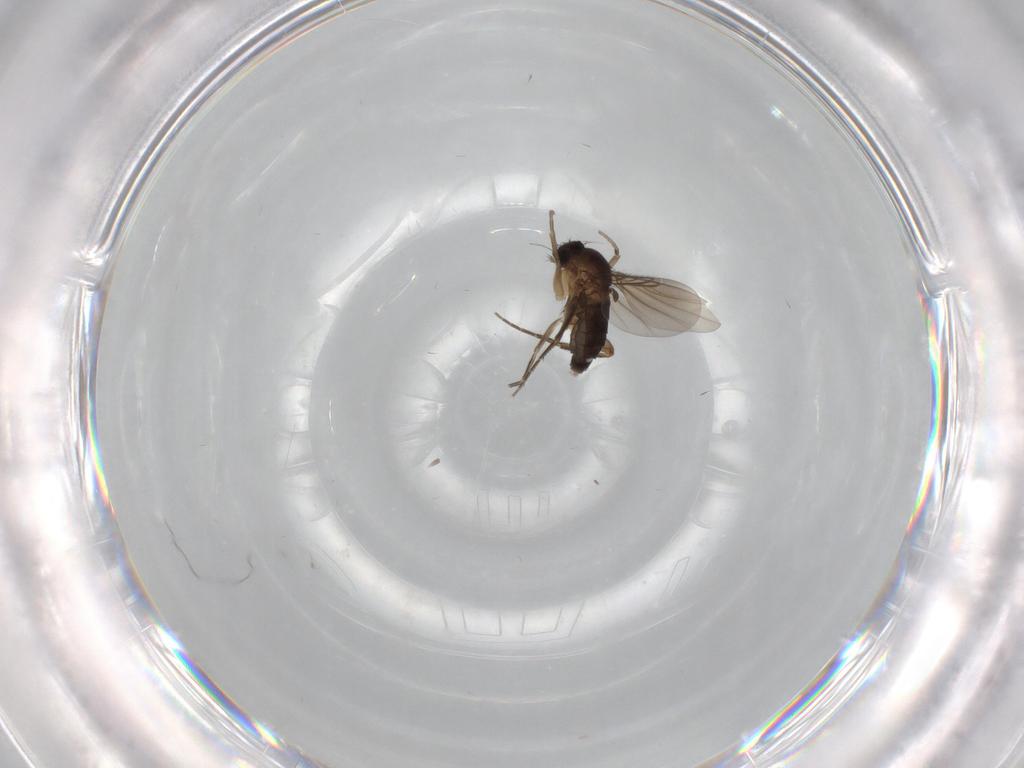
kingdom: Animalia
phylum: Arthropoda
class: Insecta
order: Diptera
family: Phoridae
